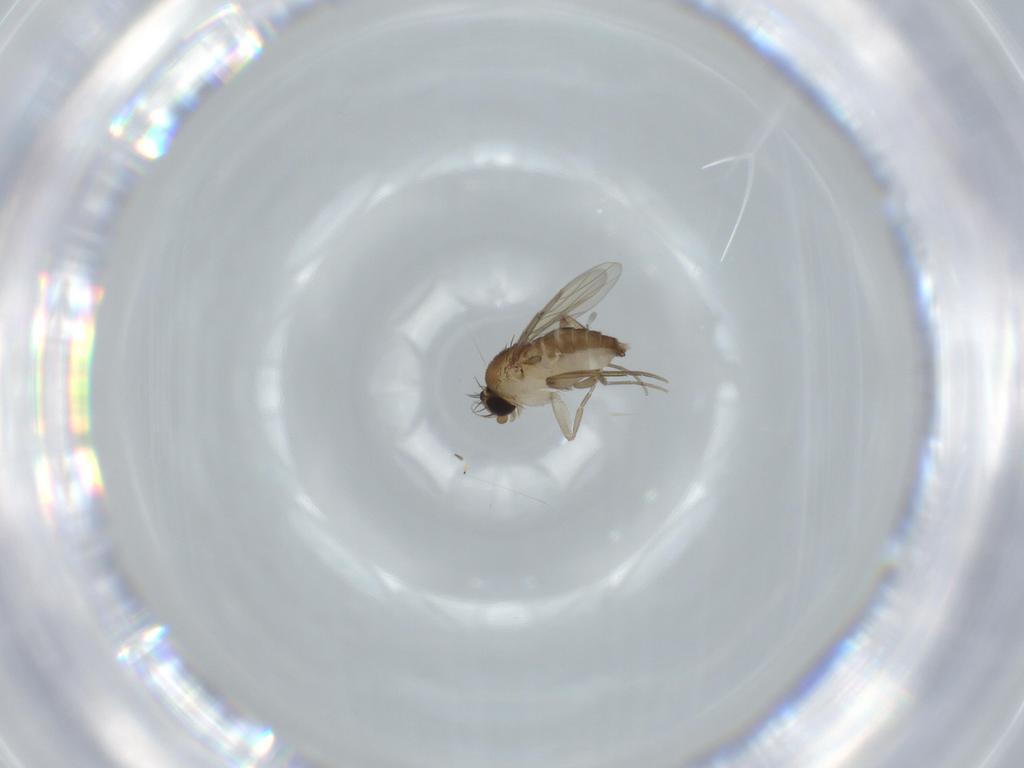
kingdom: Animalia
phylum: Arthropoda
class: Insecta
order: Diptera
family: Phoridae
